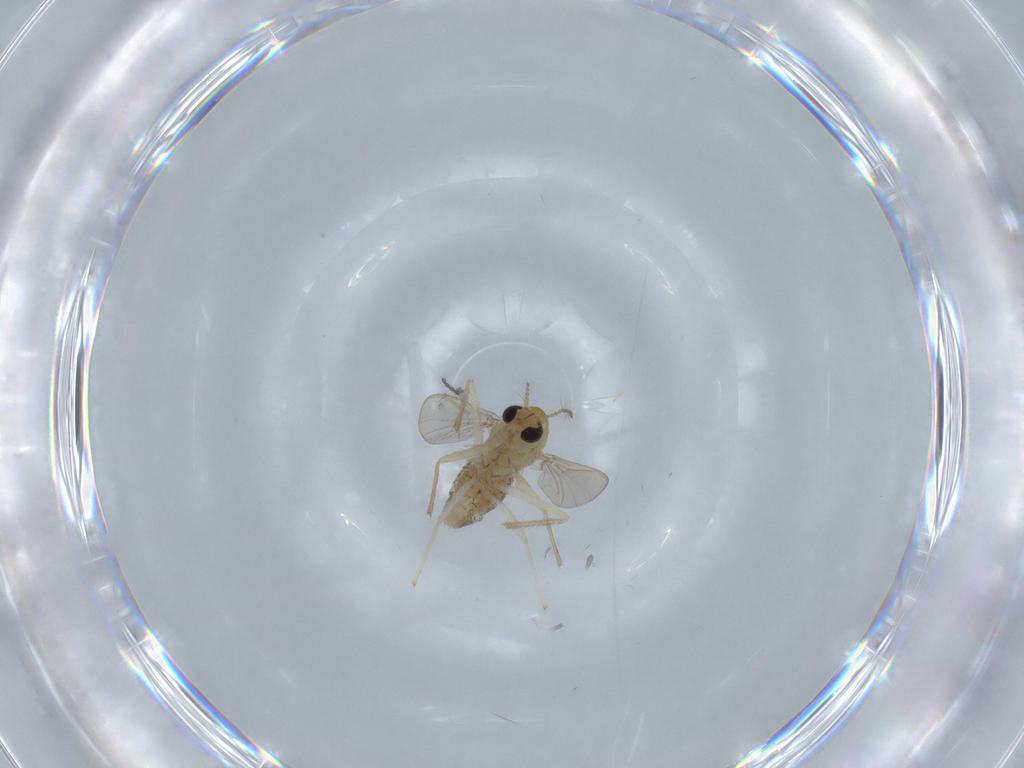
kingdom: Animalia
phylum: Arthropoda
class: Insecta
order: Diptera
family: Chironomidae
